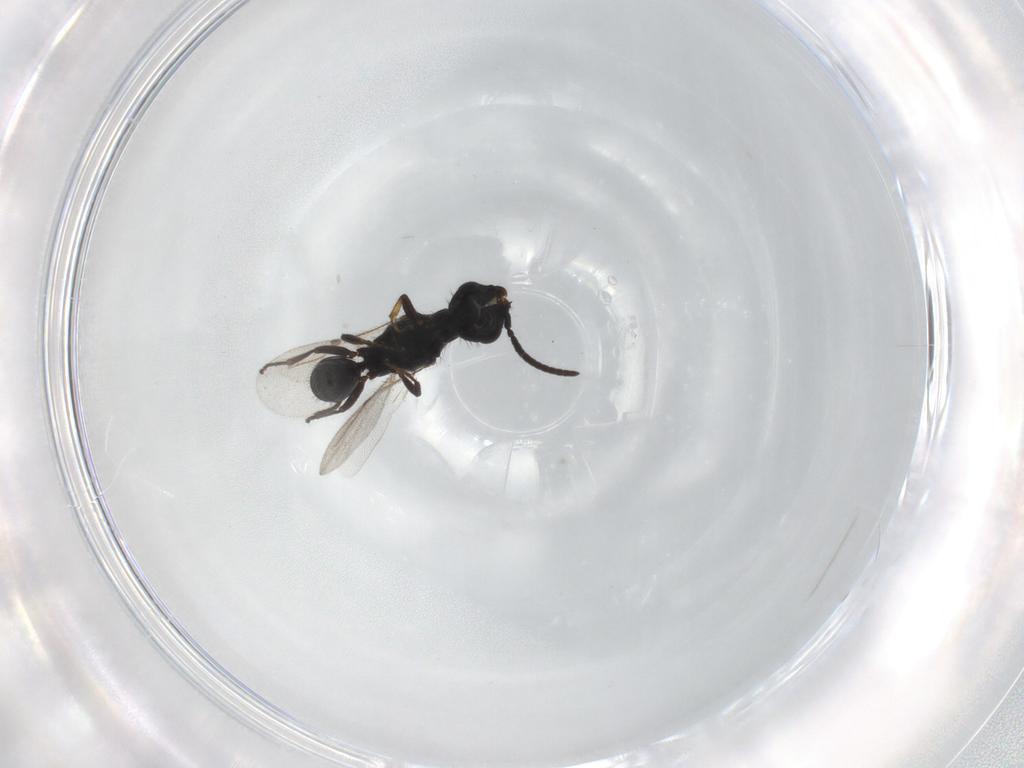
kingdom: Animalia
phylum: Arthropoda
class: Insecta
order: Hymenoptera
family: Bethylidae
